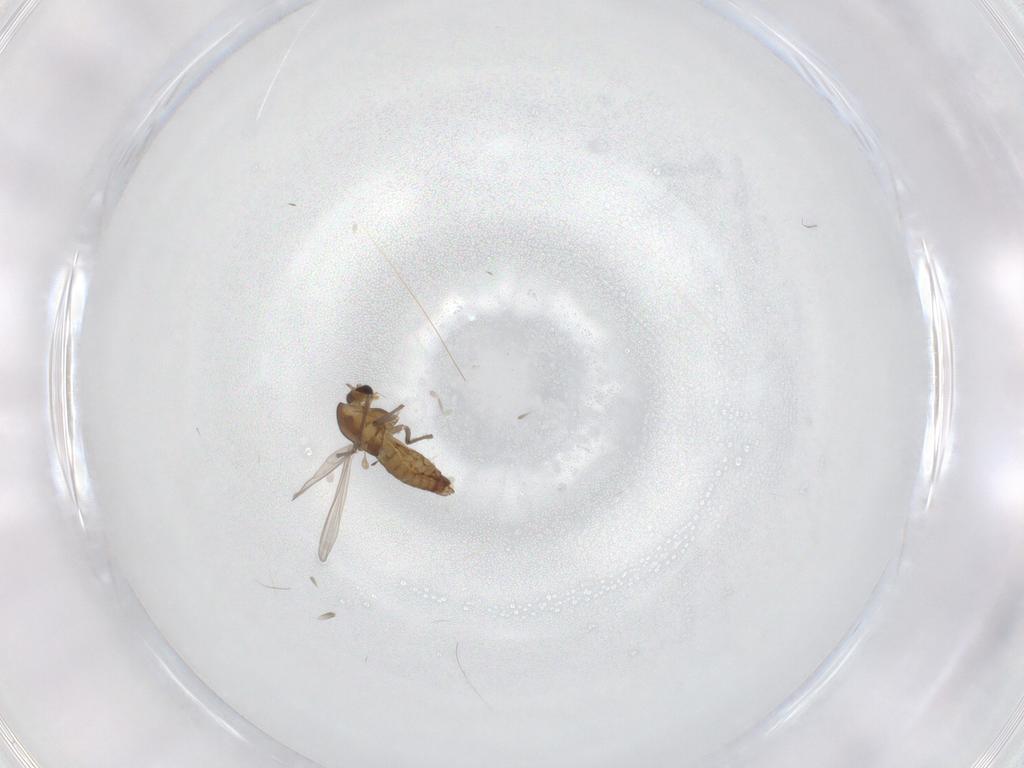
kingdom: Animalia
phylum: Arthropoda
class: Insecta
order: Diptera
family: Chironomidae
